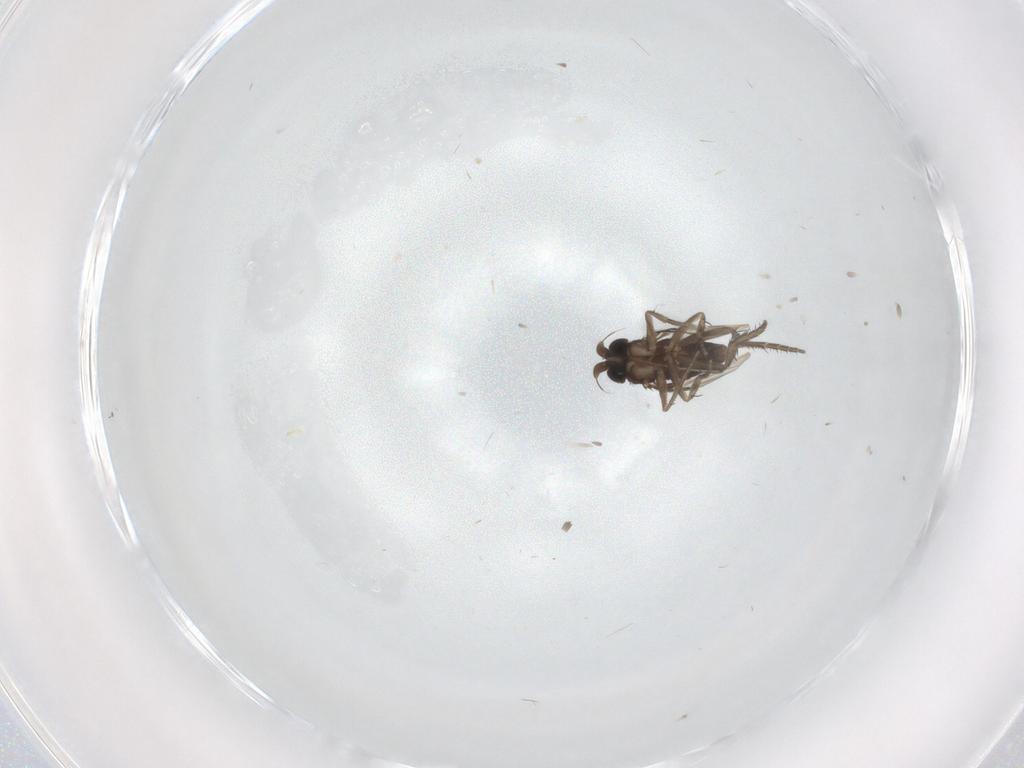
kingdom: Animalia
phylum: Arthropoda
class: Insecta
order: Diptera
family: Phoridae
